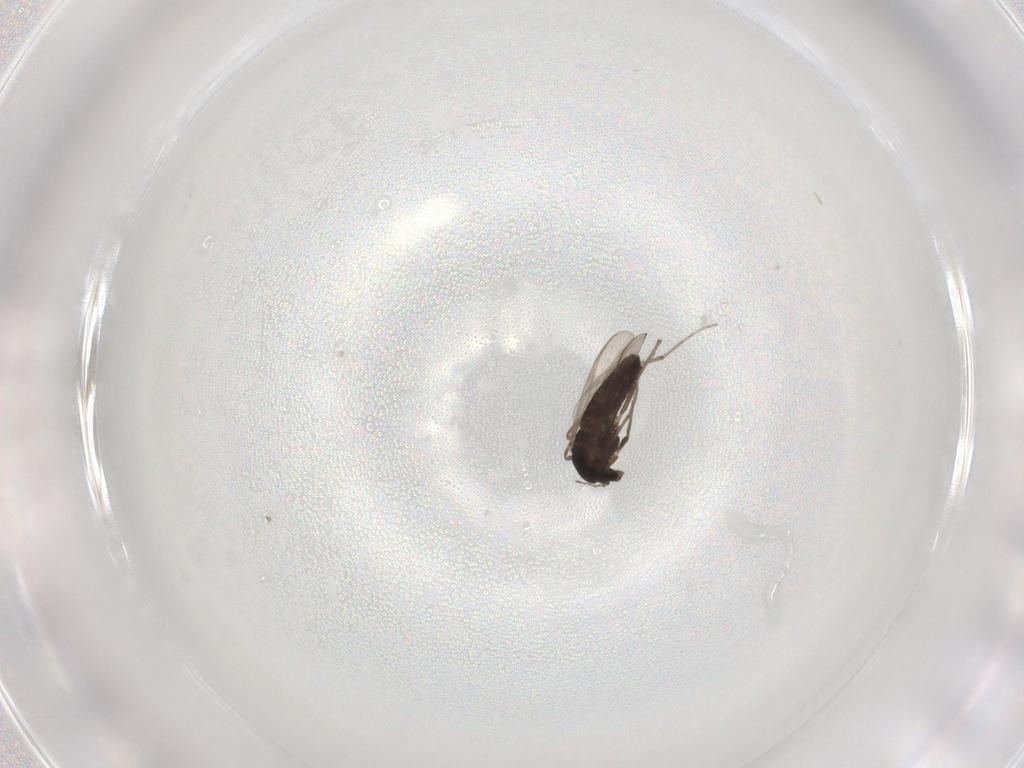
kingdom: Animalia
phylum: Arthropoda
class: Insecta
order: Diptera
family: Chironomidae
